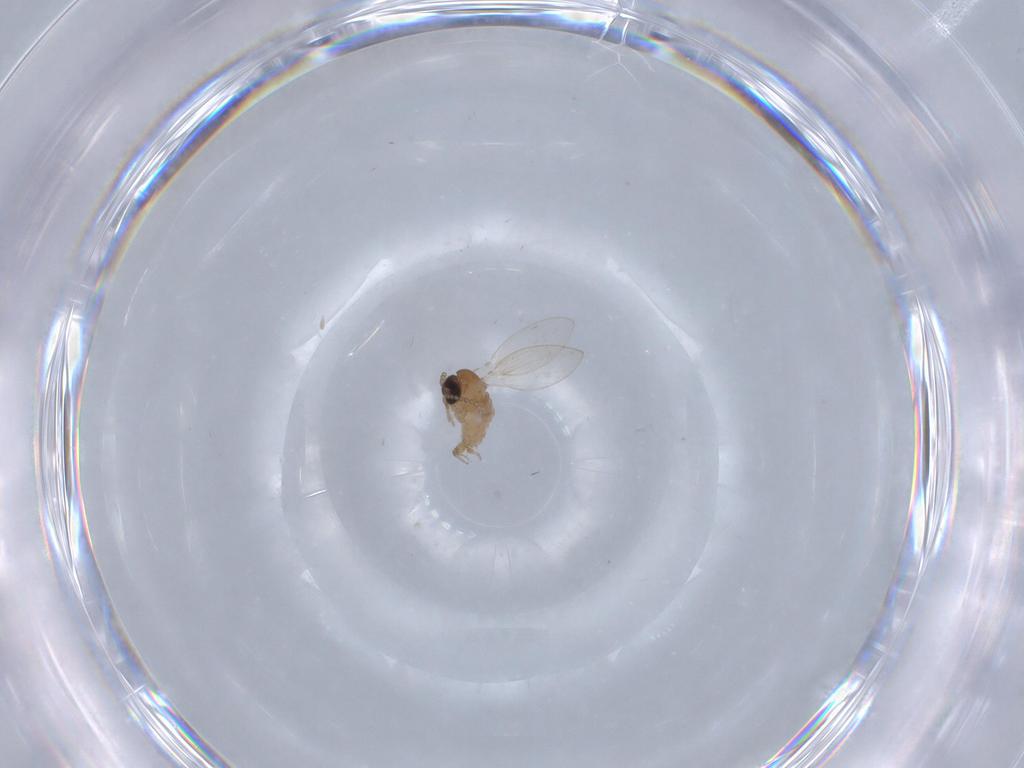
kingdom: Animalia
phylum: Arthropoda
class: Insecta
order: Diptera
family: Psychodidae
